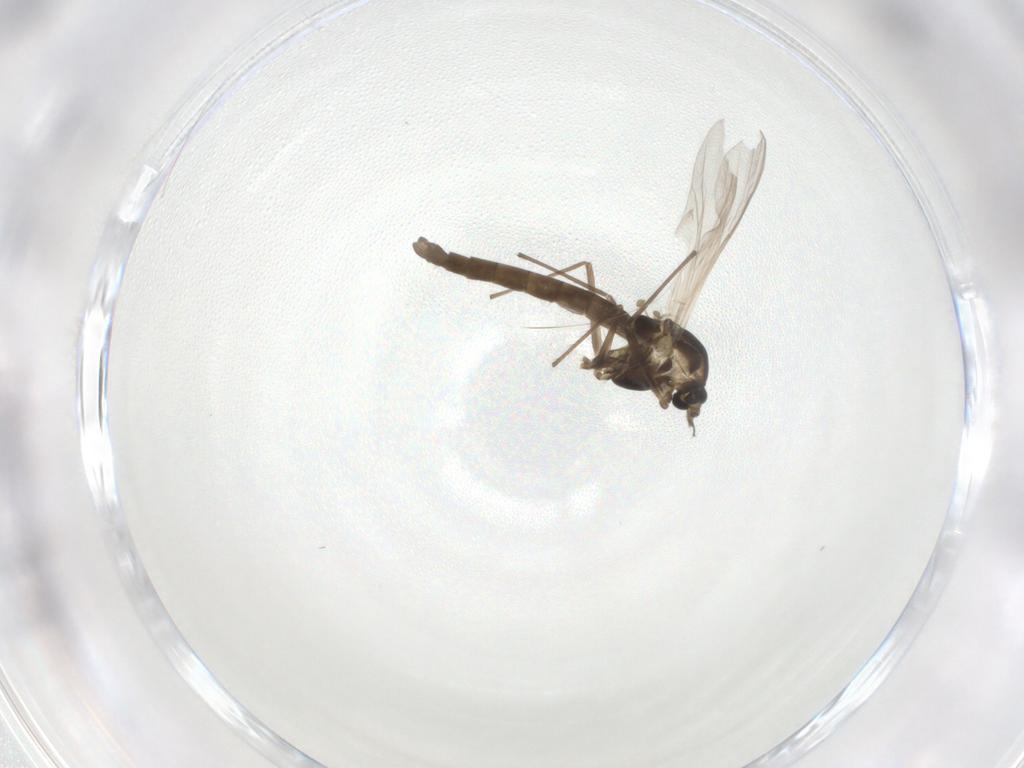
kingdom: Animalia
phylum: Arthropoda
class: Insecta
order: Diptera
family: Chironomidae
